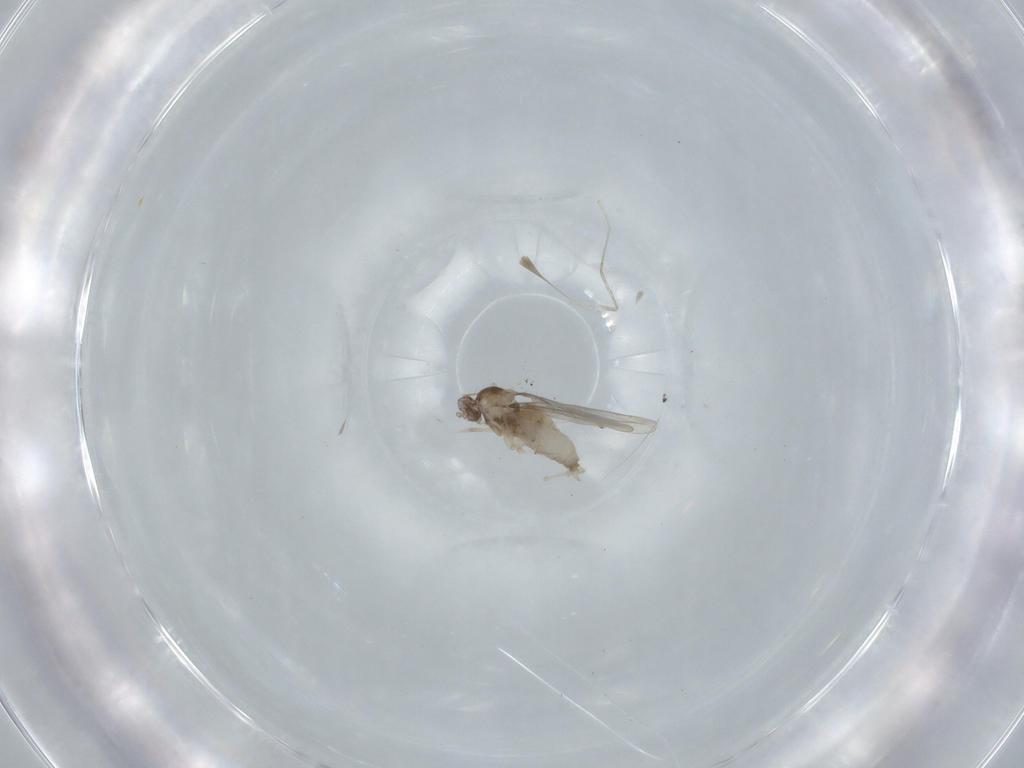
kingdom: Animalia
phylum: Arthropoda
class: Insecta
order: Diptera
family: Cecidomyiidae
